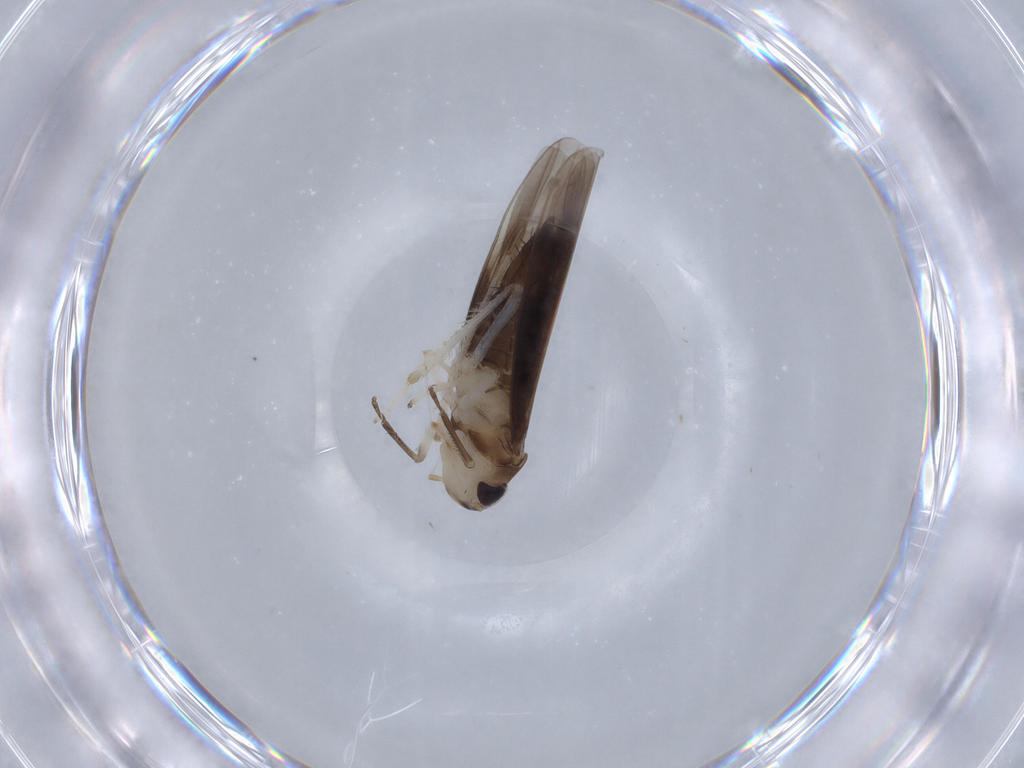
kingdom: Animalia
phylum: Arthropoda
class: Insecta
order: Hemiptera
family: Cicadellidae
